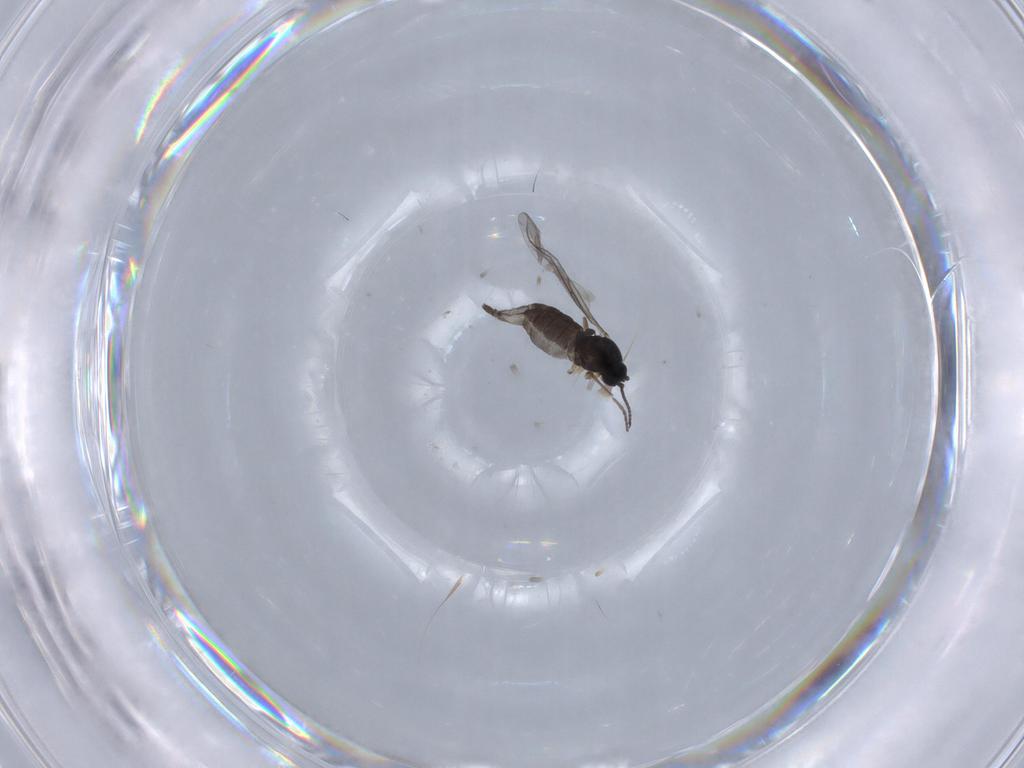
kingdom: Animalia
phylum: Arthropoda
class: Insecta
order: Diptera
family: Sciaridae
